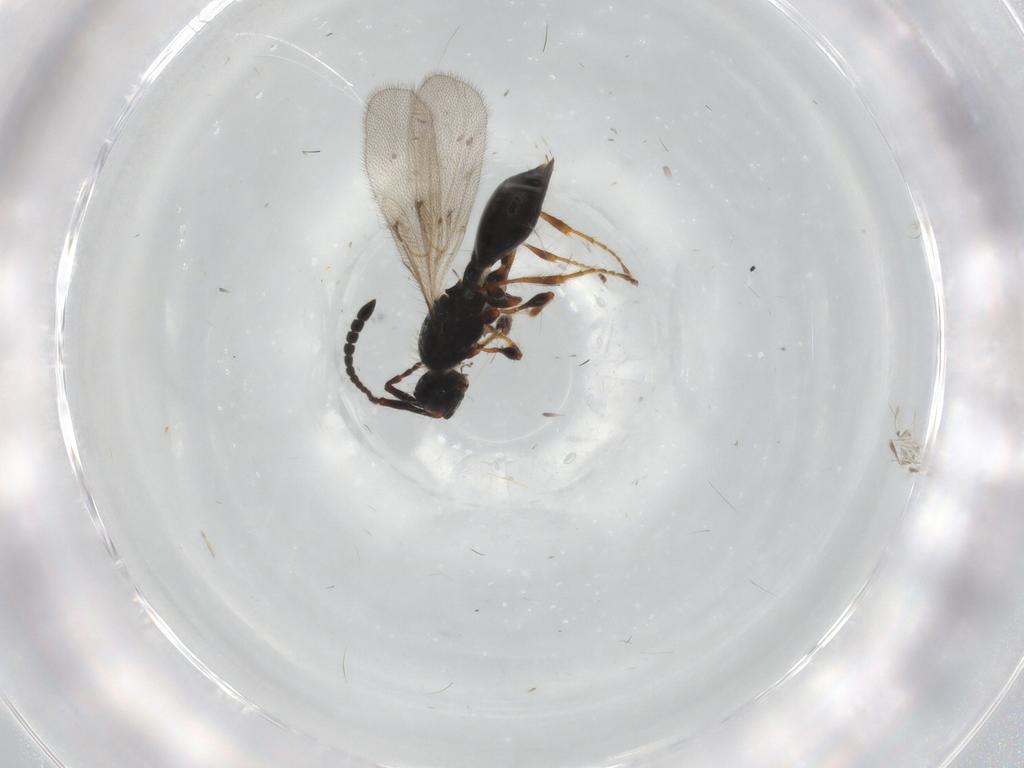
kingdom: Animalia
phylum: Arthropoda
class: Insecta
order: Hymenoptera
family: Diapriidae
